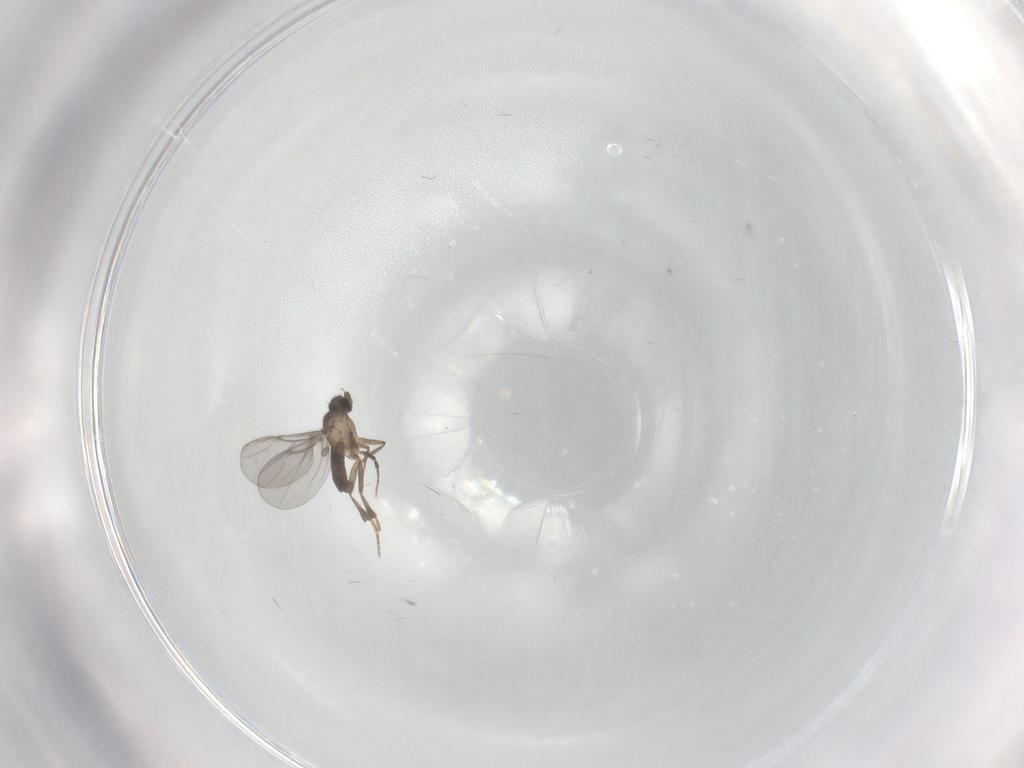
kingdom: Animalia
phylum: Arthropoda
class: Insecta
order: Diptera
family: Phoridae
